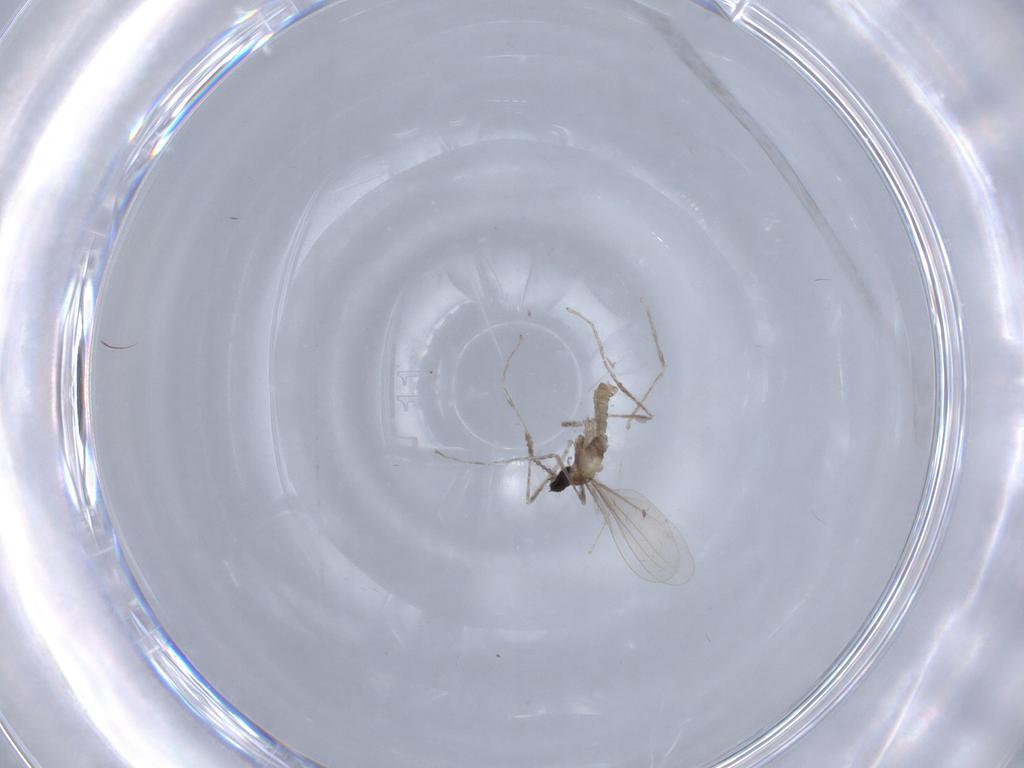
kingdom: Animalia
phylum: Arthropoda
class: Insecta
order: Diptera
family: Cecidomyiidae
